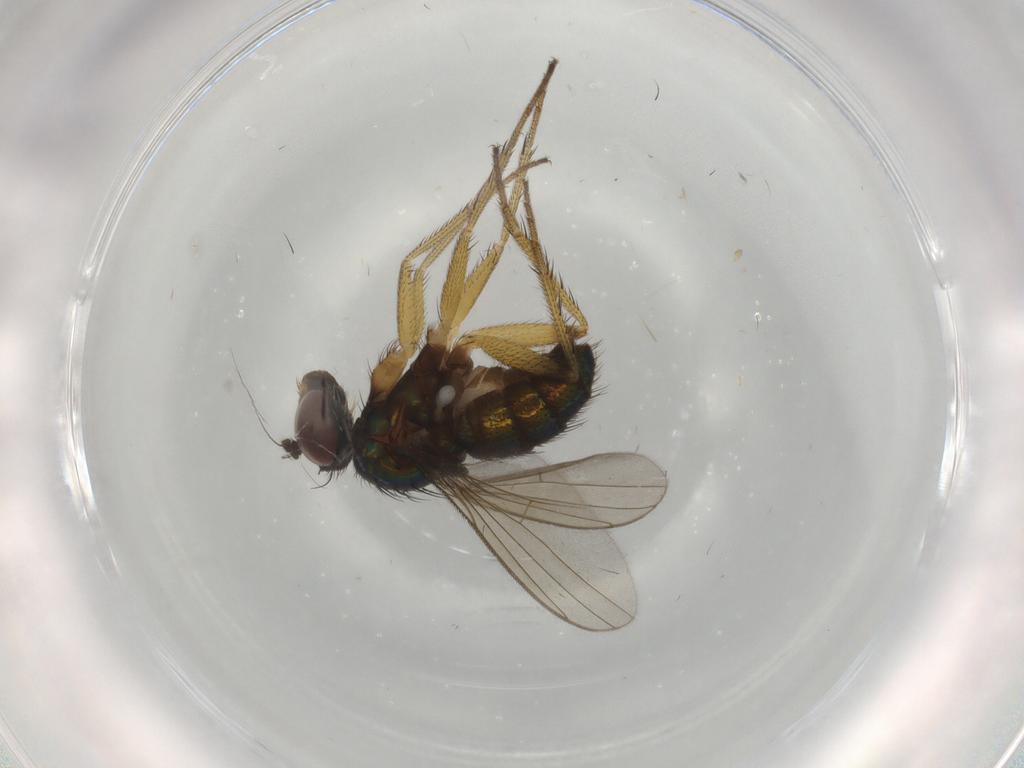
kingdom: Animalia
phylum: Arthropoda
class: Insecta
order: Diptera
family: Dolichopodidae
